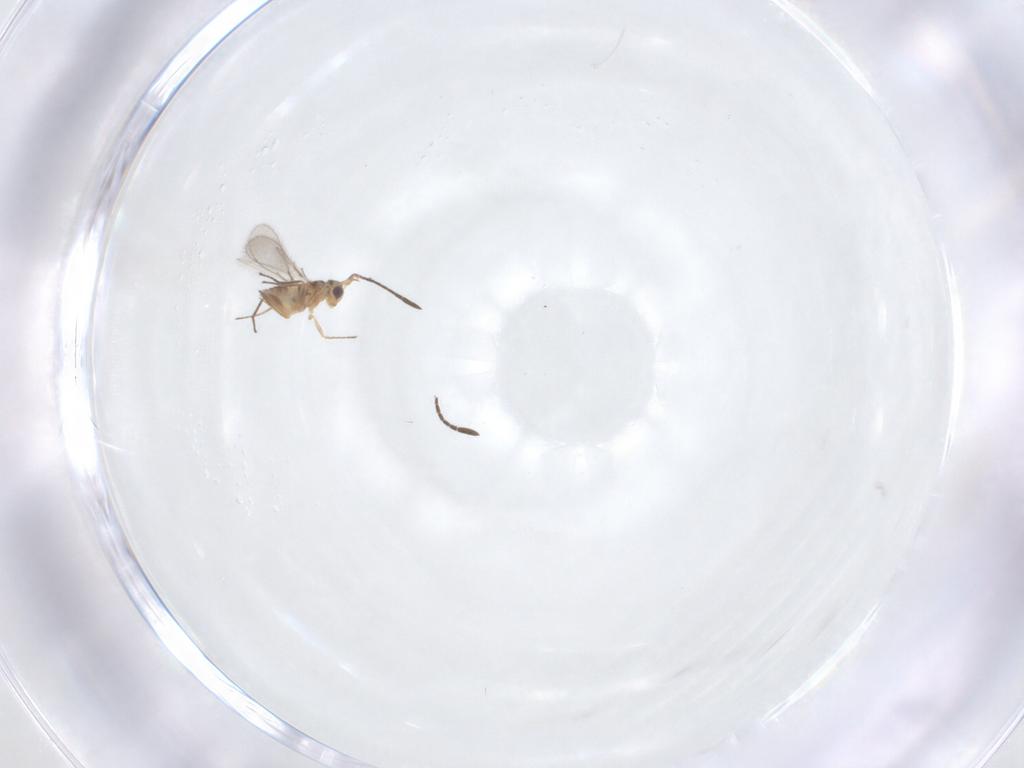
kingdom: Animalia
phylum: Arthropoda
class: Insecta
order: Hymenoptera
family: Mymaridae
